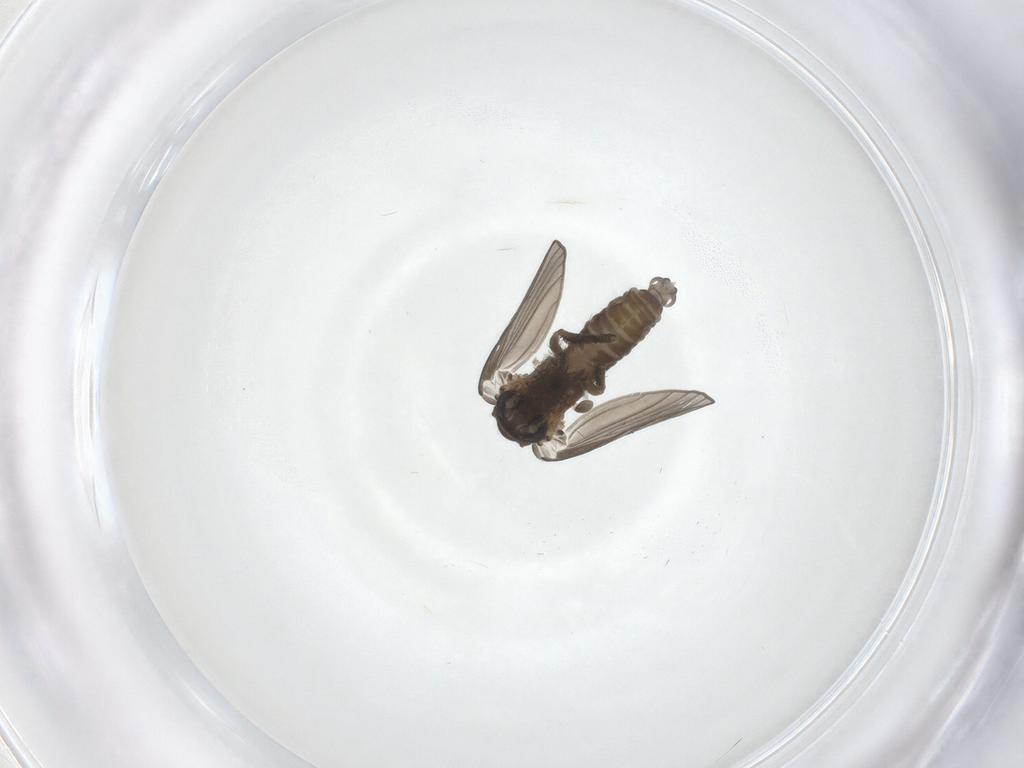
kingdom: Animalia
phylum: Arthropoda
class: Insecta
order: Diptera
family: Psychodidae
